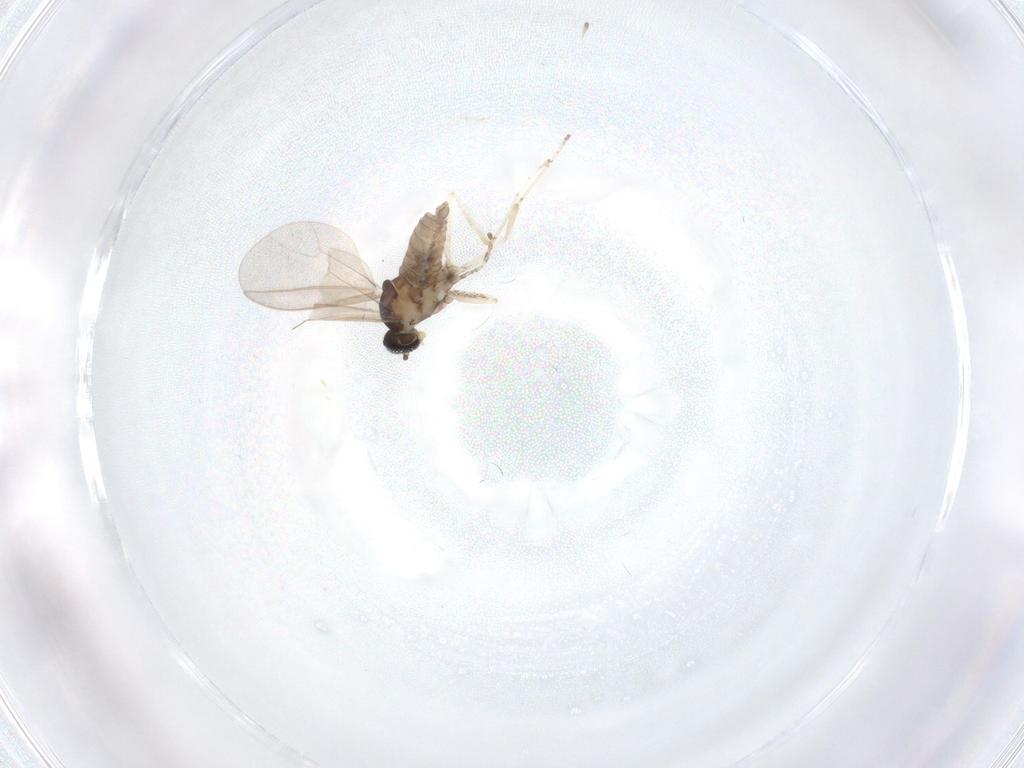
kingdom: Animalia
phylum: Arthropoda
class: Insecta
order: Diptera
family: Cecidomyiidae
